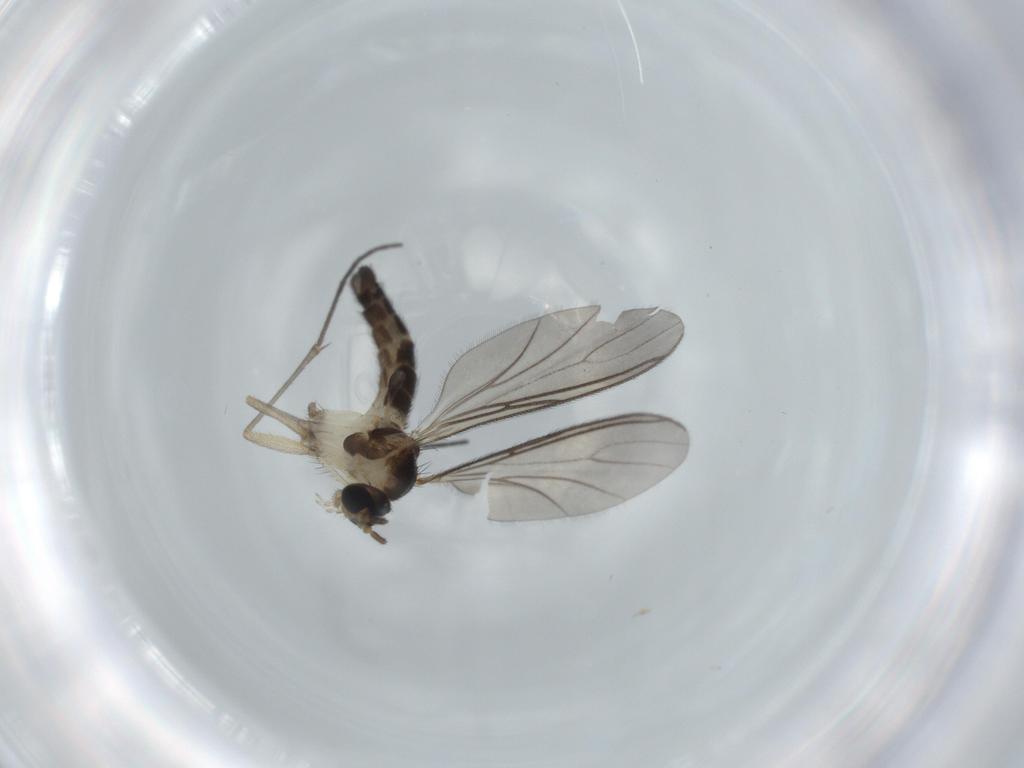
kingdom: Animalia
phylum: Arthropoda
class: Insecta
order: Diptera
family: Sciaridae
